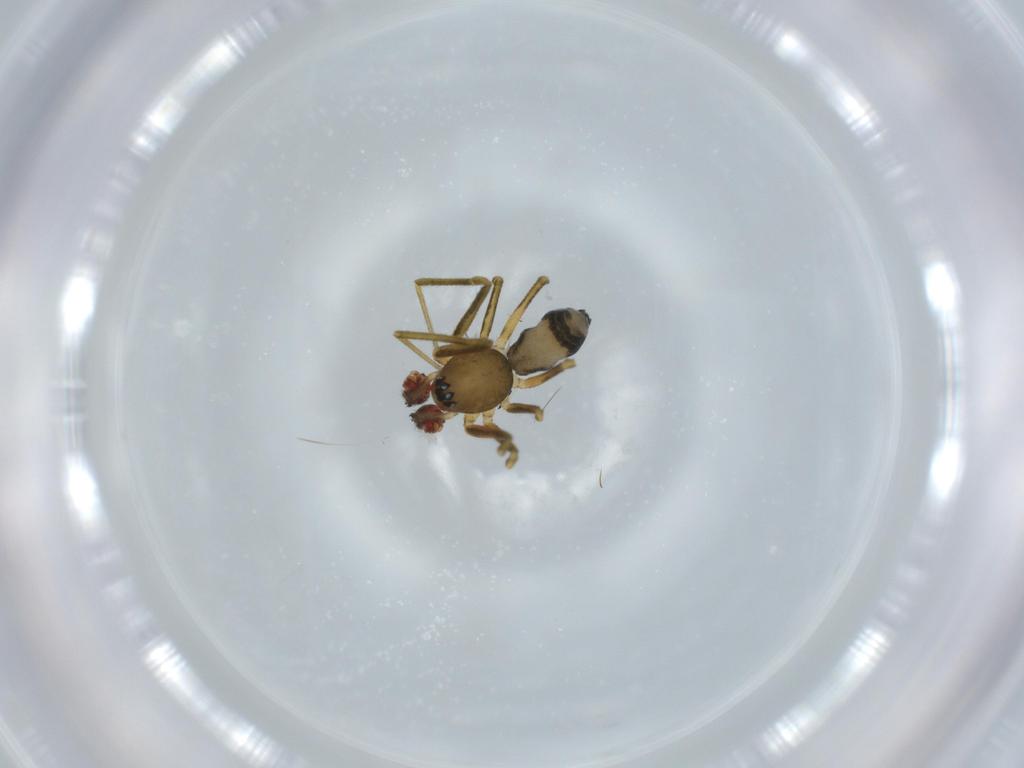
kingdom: Animalia
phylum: Arthropoda
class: Arachnida
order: Araneae
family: Linyphiidae
